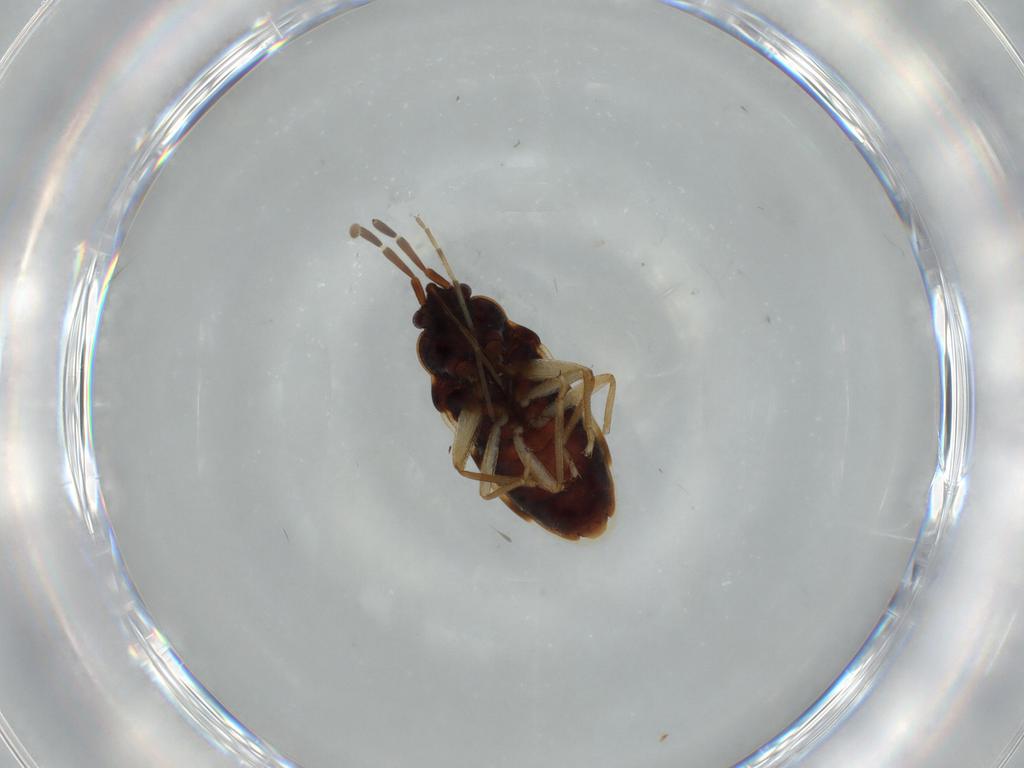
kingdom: Animalia
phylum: Arthropoda
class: Insecta
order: Hemiptera
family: Rhyparochromidae
